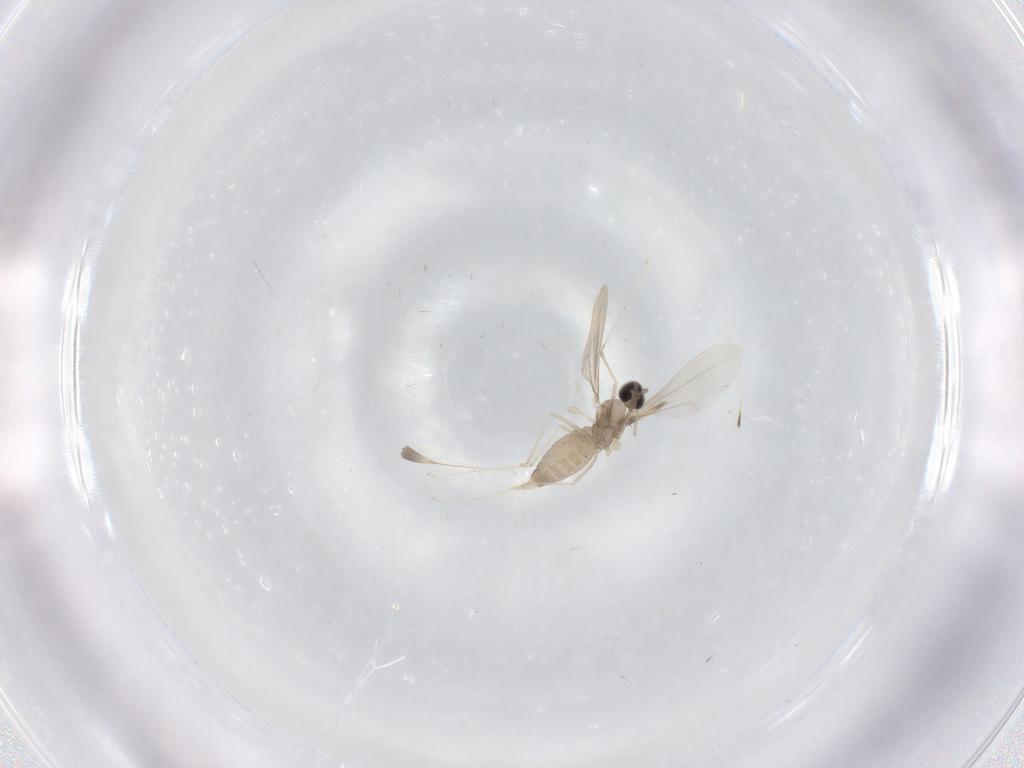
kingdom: Animalia
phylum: Arthropoda
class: Insecta
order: Diptera
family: Cecidomyiidae
